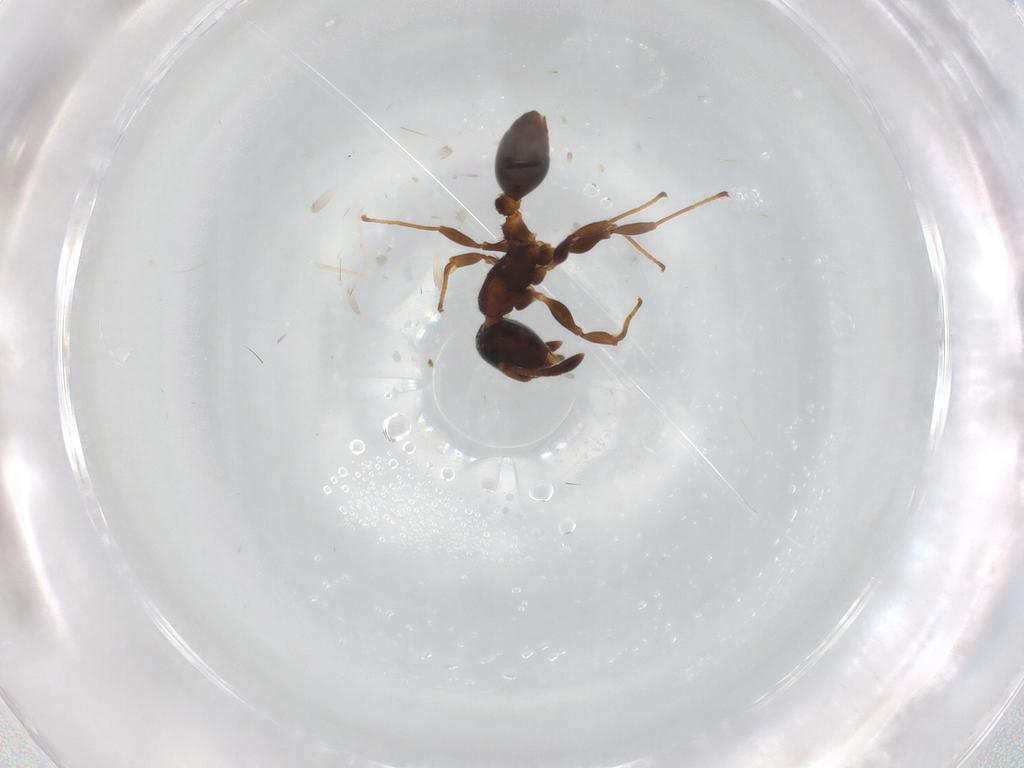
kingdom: Animalia
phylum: Arthropoda
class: Insecta
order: Hymenoptera
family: Formicidae
